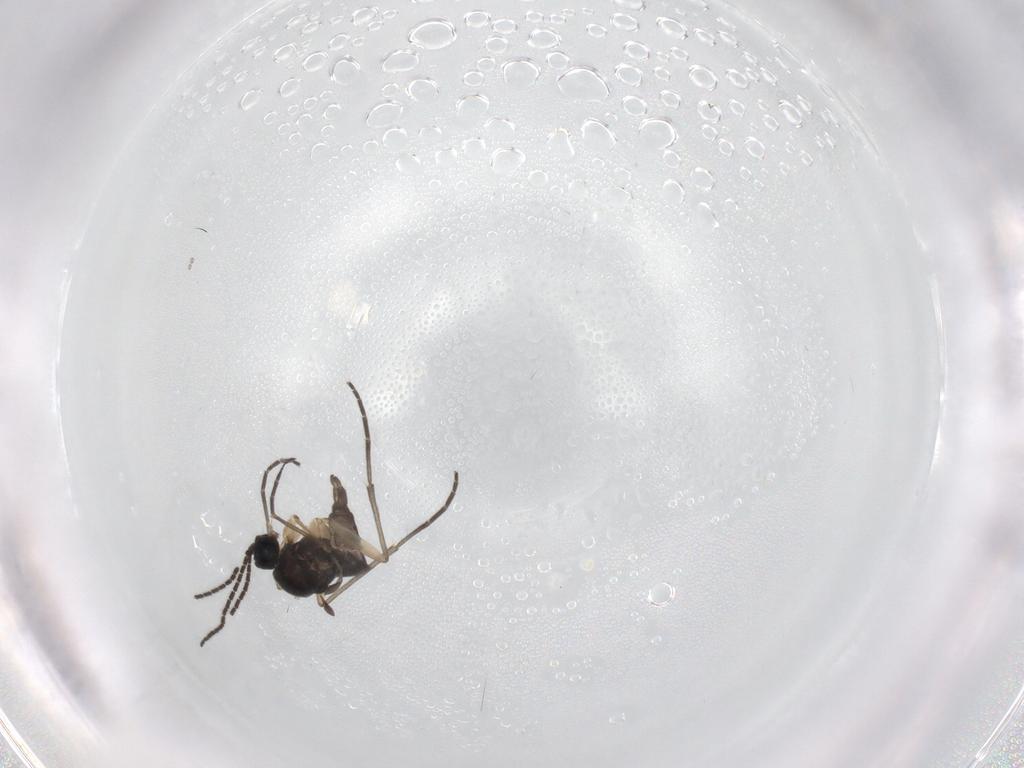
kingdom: Animalia
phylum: Arthropoda
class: Insecta
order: Diptera
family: Sciaridae
